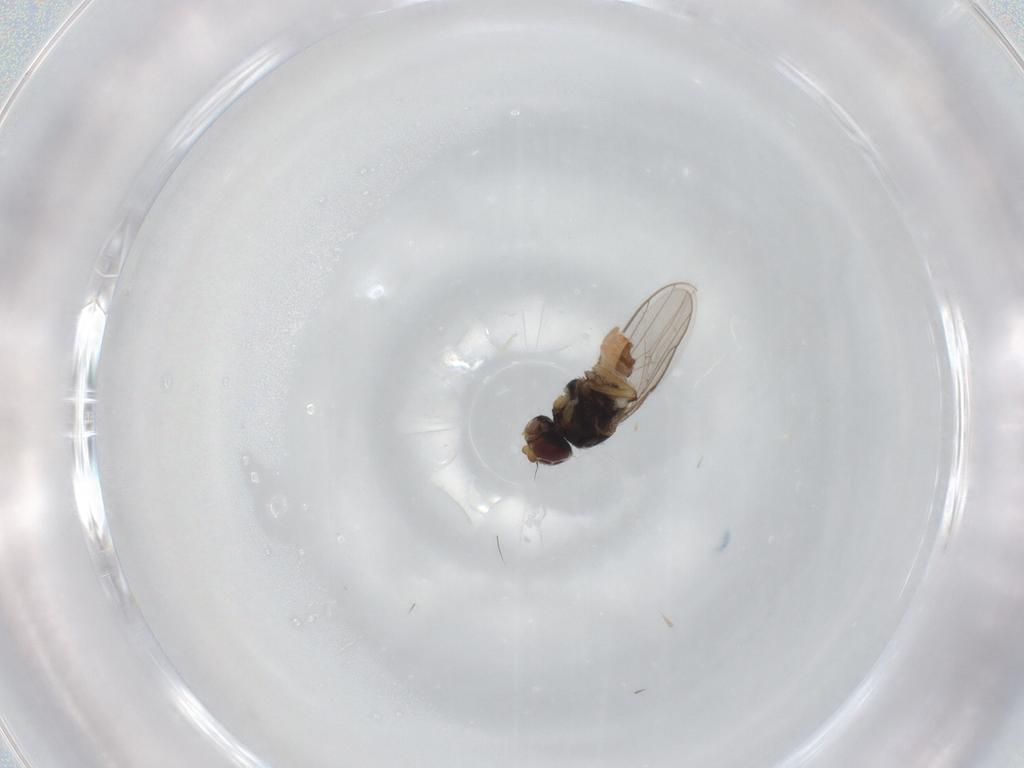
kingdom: Animalia
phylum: Arthropoda
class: Insecta
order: Diptera
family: Chloropidae
